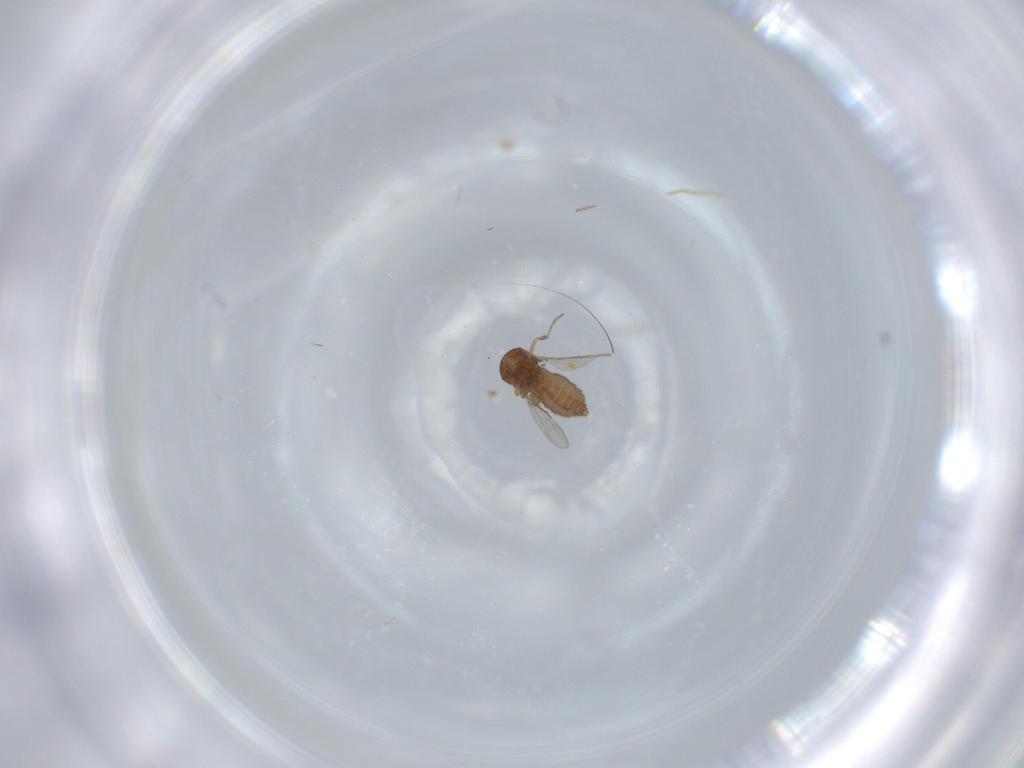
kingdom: Animalia
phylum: Arthropoda
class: Insecta
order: Diptera
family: Ceratopogonidae
